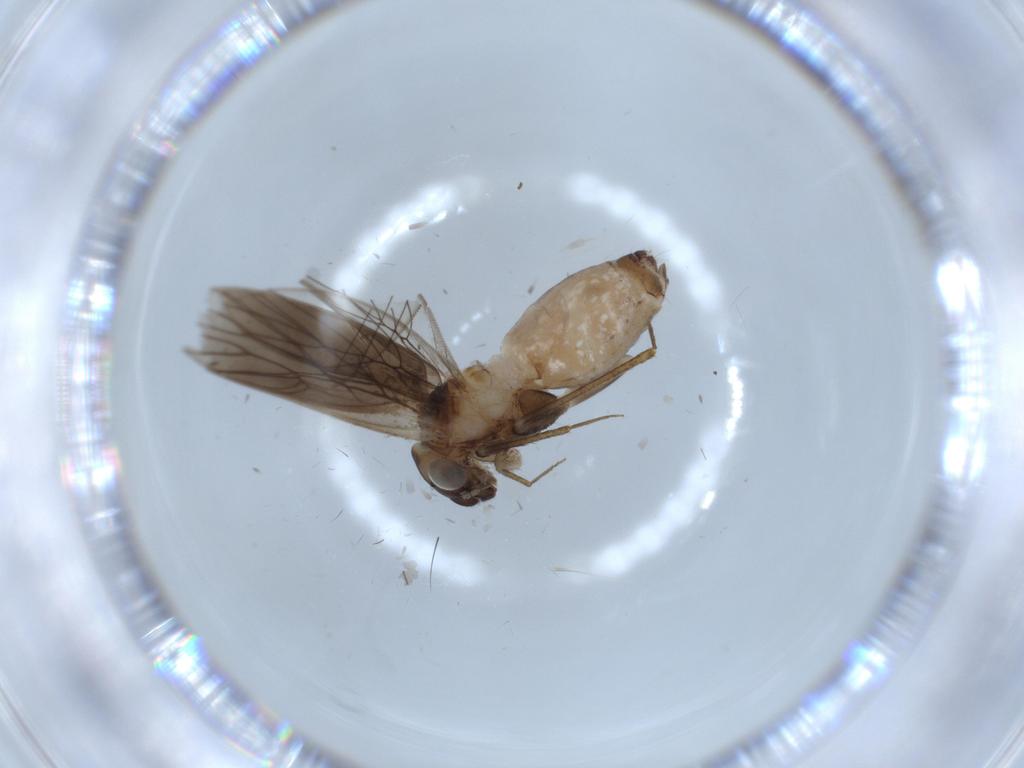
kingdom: Animalia
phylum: Arthropoda
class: Insecta
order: Psocodea
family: Lepidopsocidae
